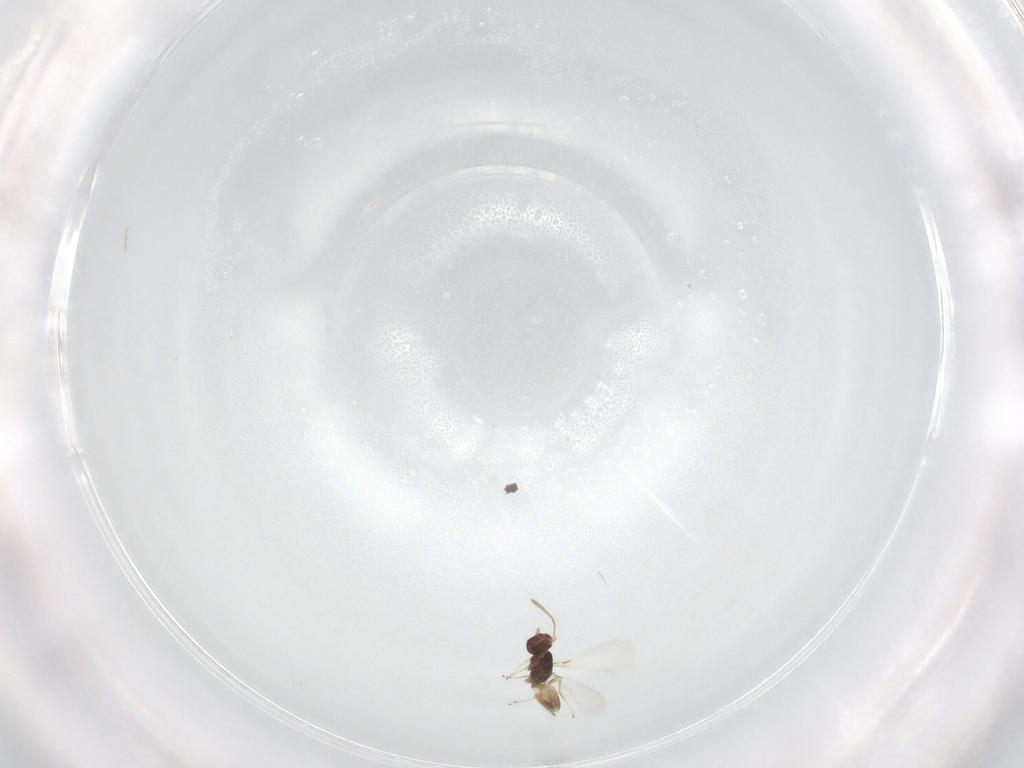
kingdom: Animalia
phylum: Arthropoda
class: Insecta
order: Hymenoptera
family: Mymaridae
